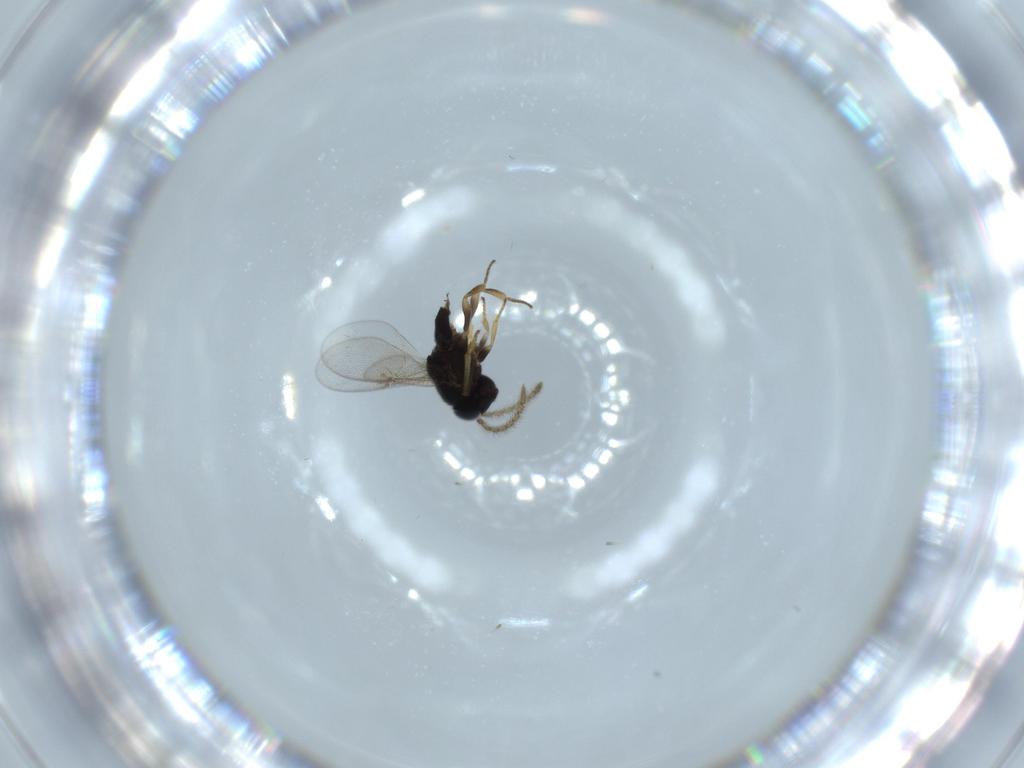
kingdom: Animalia
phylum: Arthropoda
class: Insecta
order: Hymenoptera
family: Platygastridae
